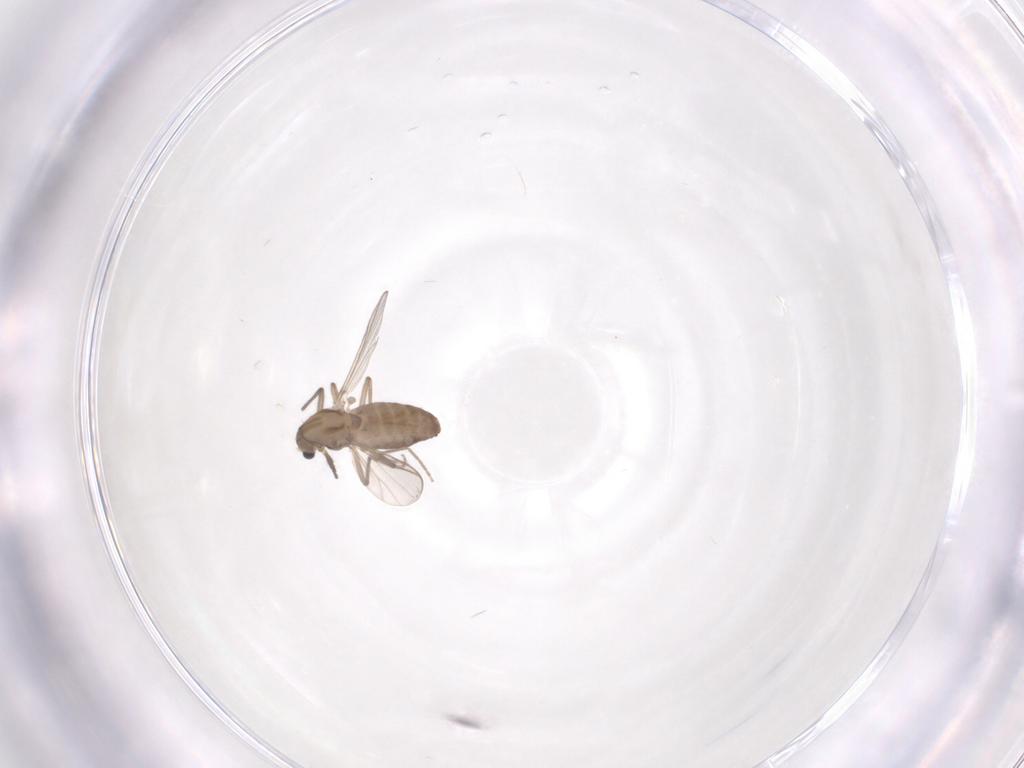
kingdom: Animalia
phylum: Arthropoda
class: Insecta
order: Diptera
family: Chironomidae
